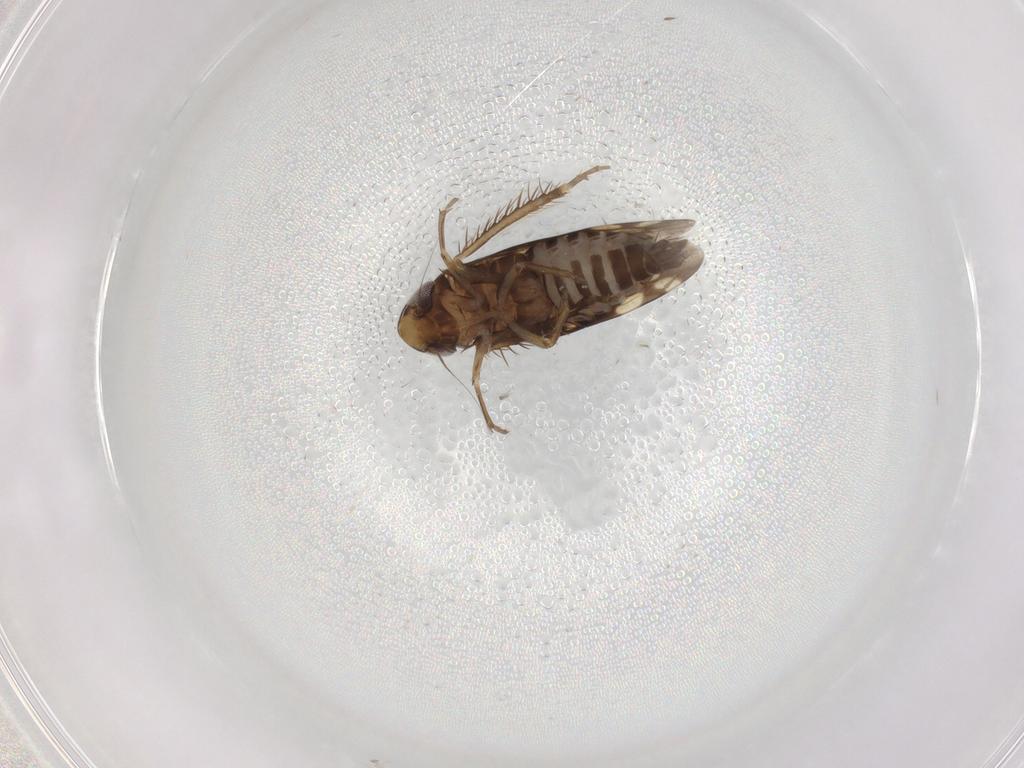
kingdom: Animalia
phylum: Arthropoda
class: Insecta
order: Hemiptera
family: Cicadellidae
